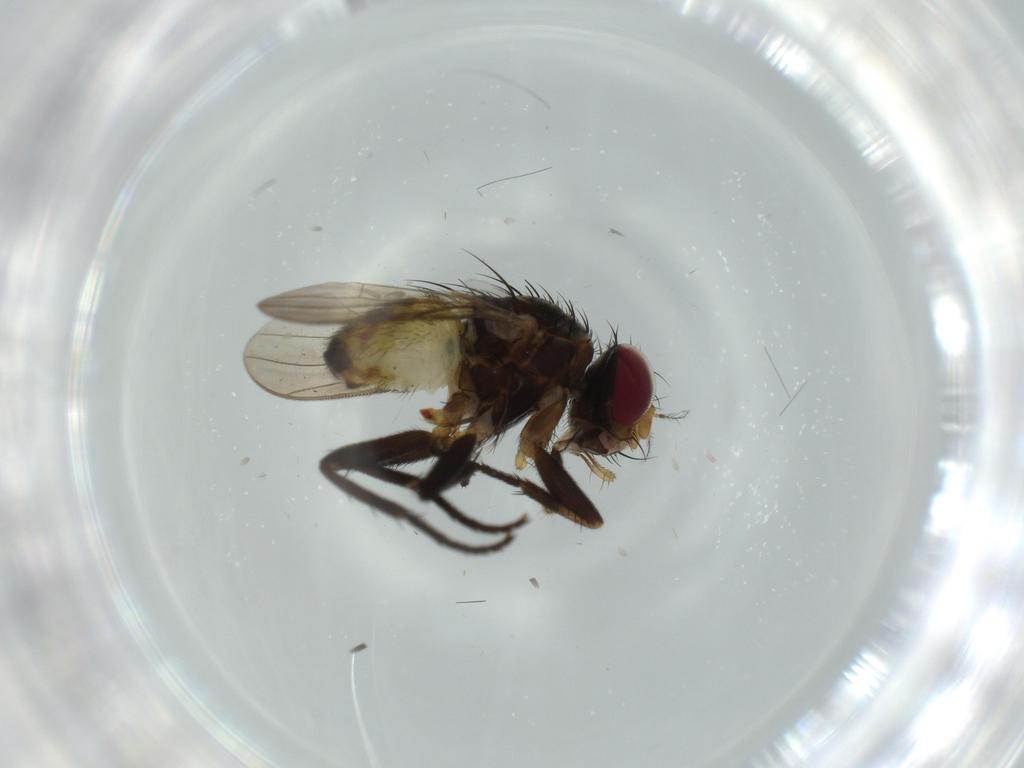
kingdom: Animalia
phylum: Arthropoda
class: Insecta
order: Diptera
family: Anthomyiidae
